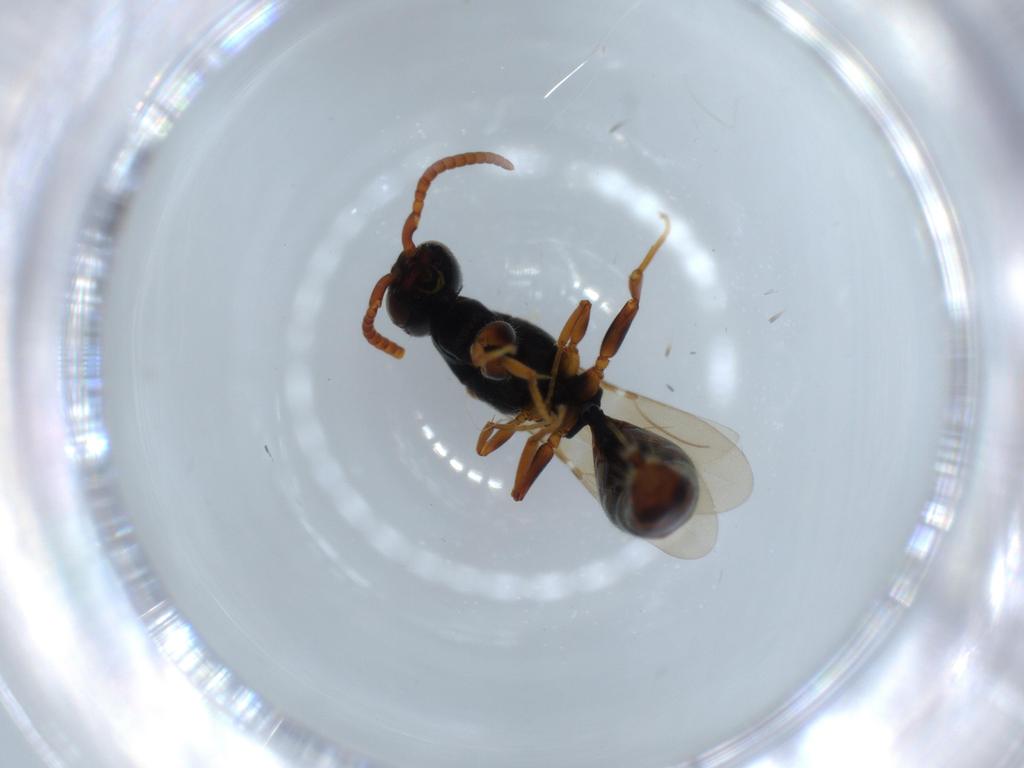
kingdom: Animalia
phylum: Arthropoda
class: Insecta
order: Hymenoptera
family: Bethylidae
